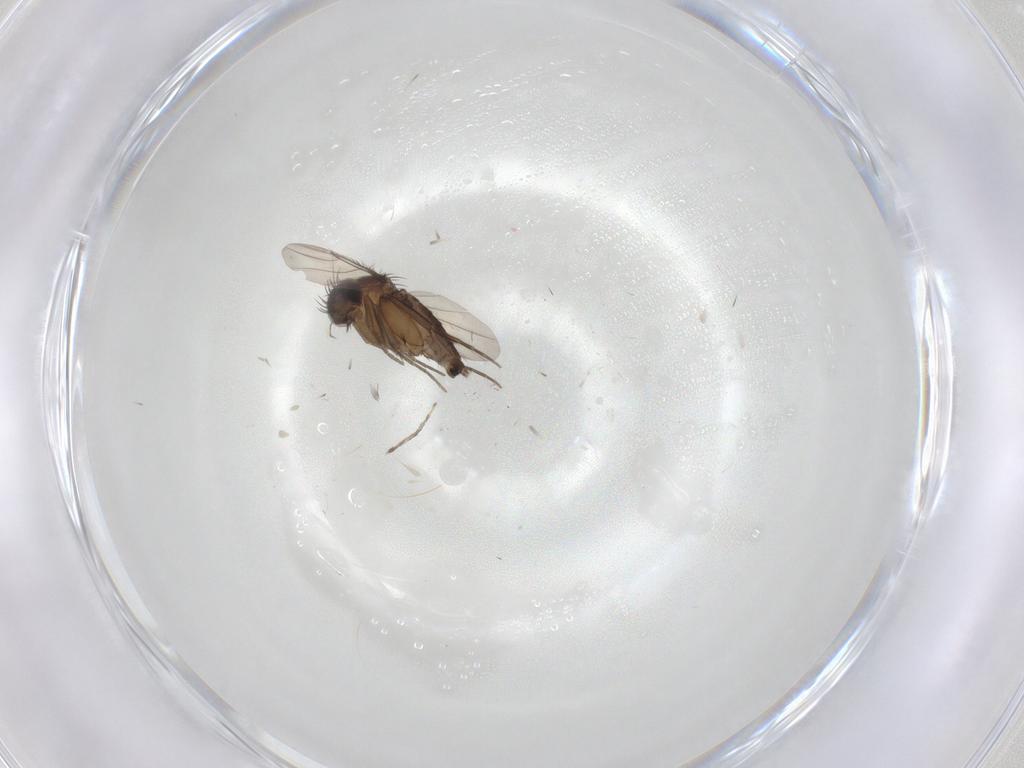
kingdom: Animalia
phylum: Arthropoda
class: Insecta
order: Diptera
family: Phoridae
